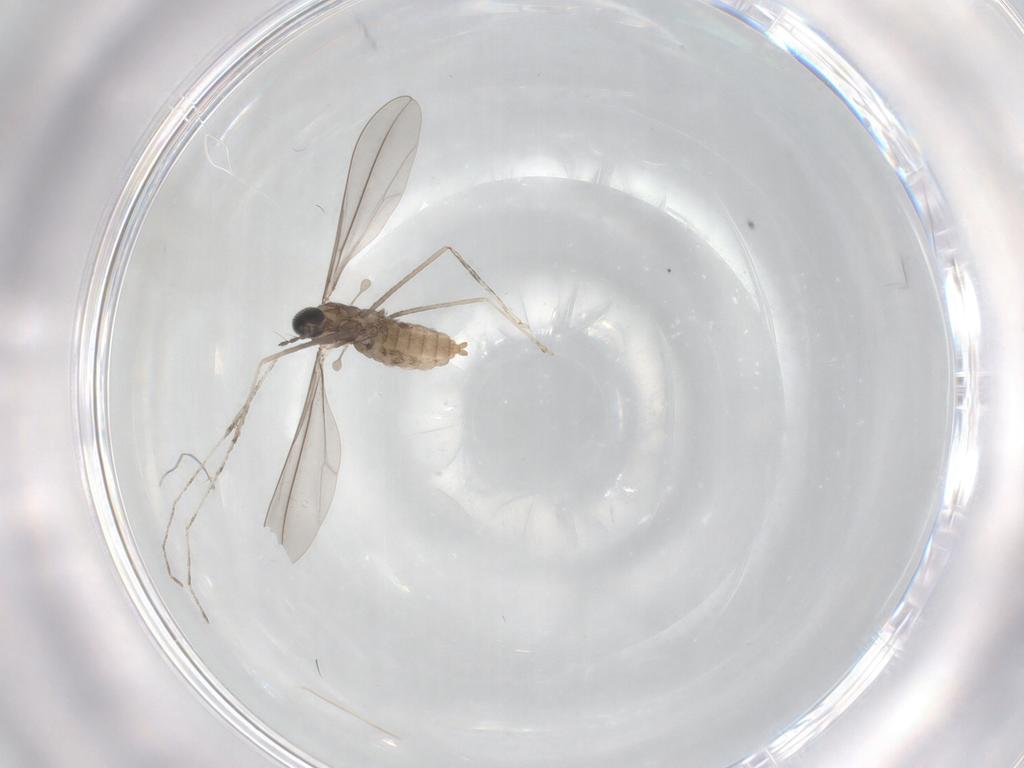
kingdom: Animalia
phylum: Arthropoda
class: Insecta
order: Diptera
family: Cecidomyiidae
